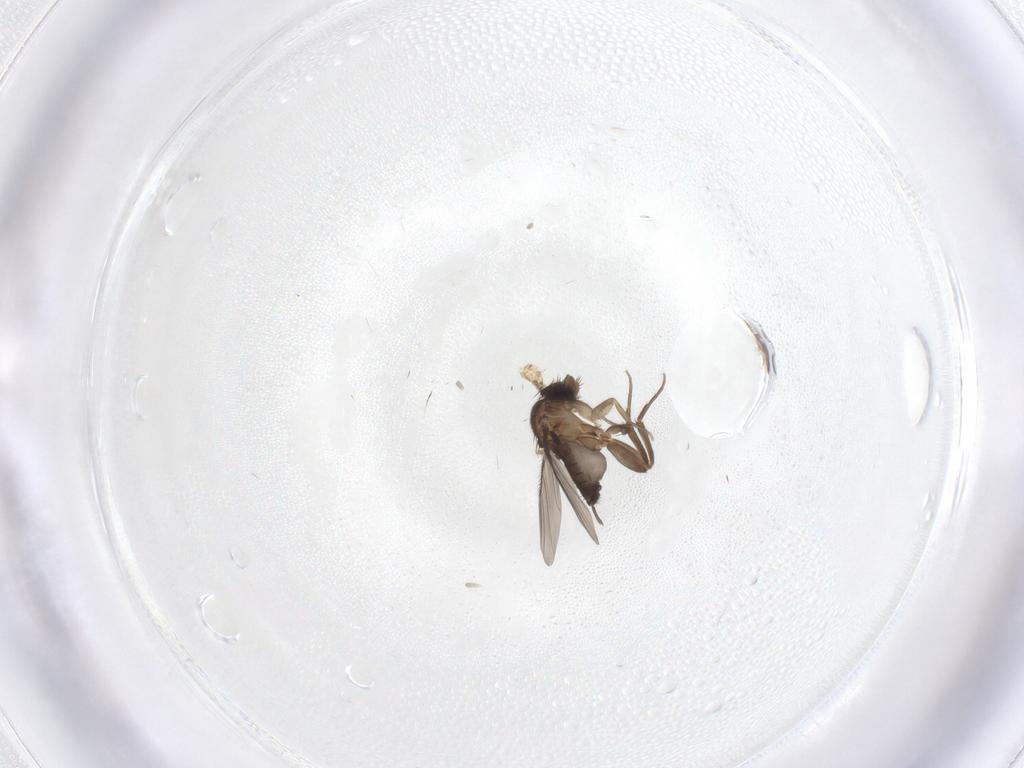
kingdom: Animalia
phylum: Arthropoda
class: Insecta
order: Diptera
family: Phoridae
